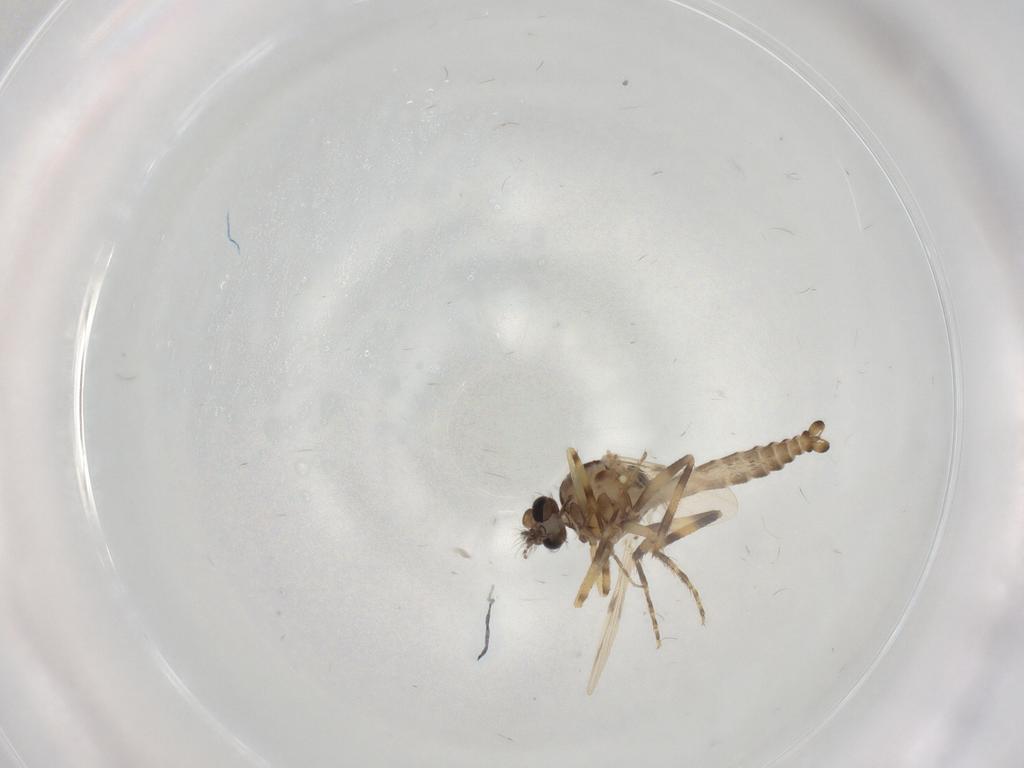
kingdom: Animalia
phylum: Arthropoda
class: Insecta
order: Diptera
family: Ceratopogonidae
